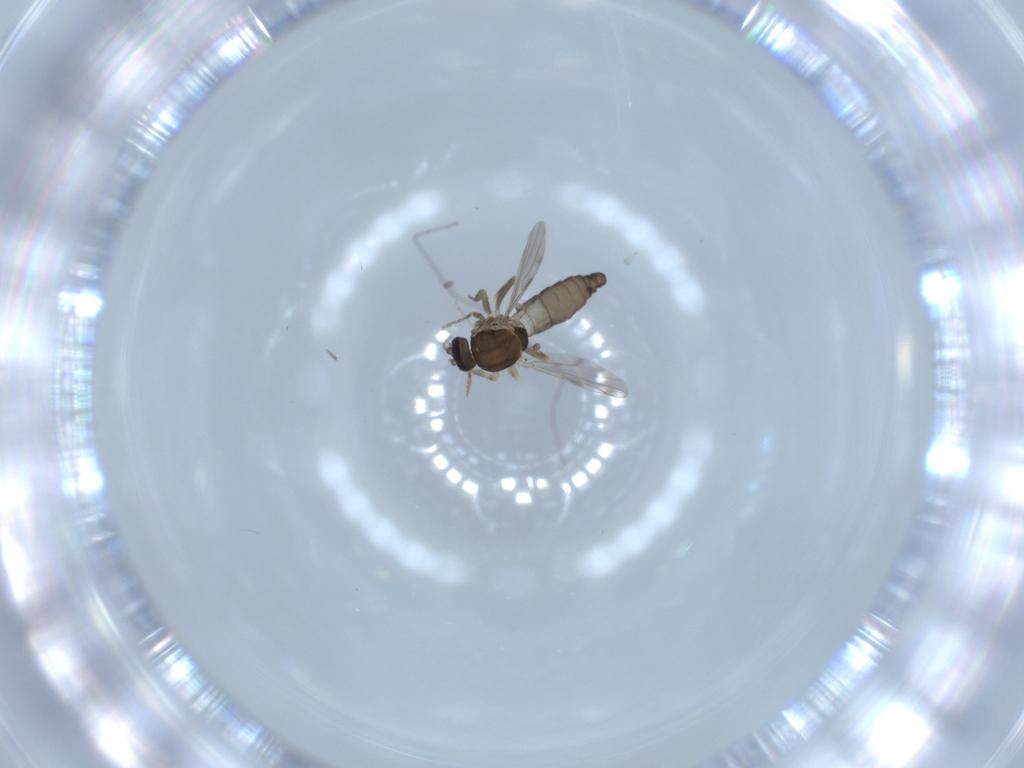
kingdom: Animalia
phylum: Arthropoda
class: Insecta
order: Diptera
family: Ceratopogonidae
